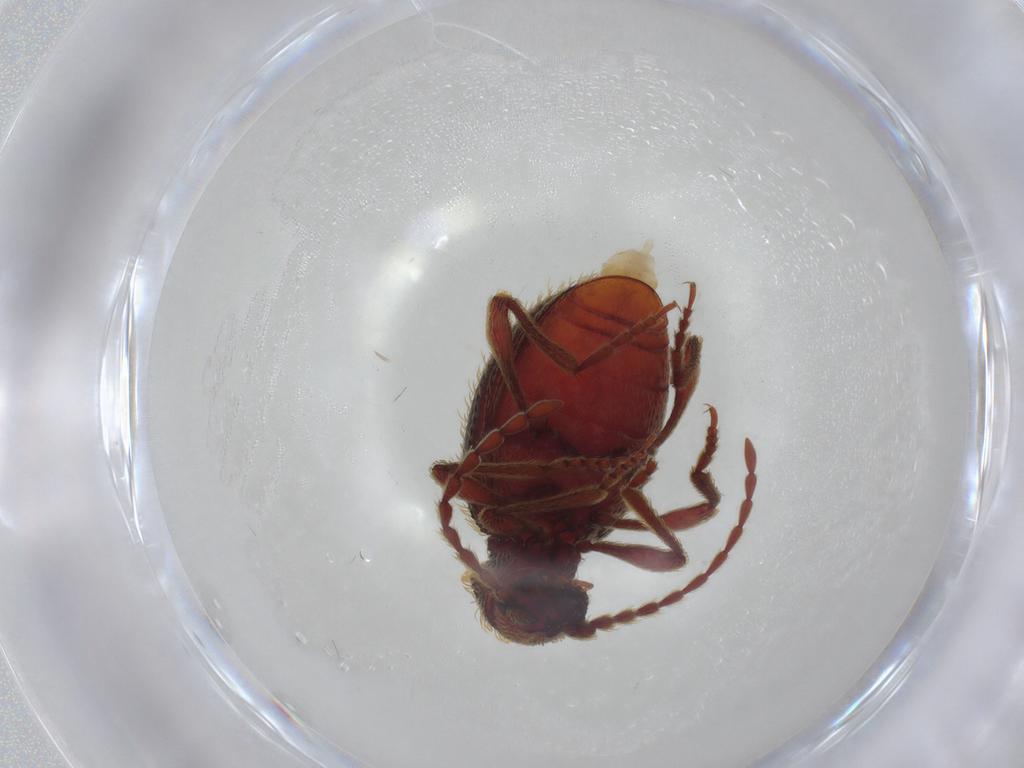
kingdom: Animalia
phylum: Arthropoda
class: Insecta
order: Coleoptera
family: Ptinidae
